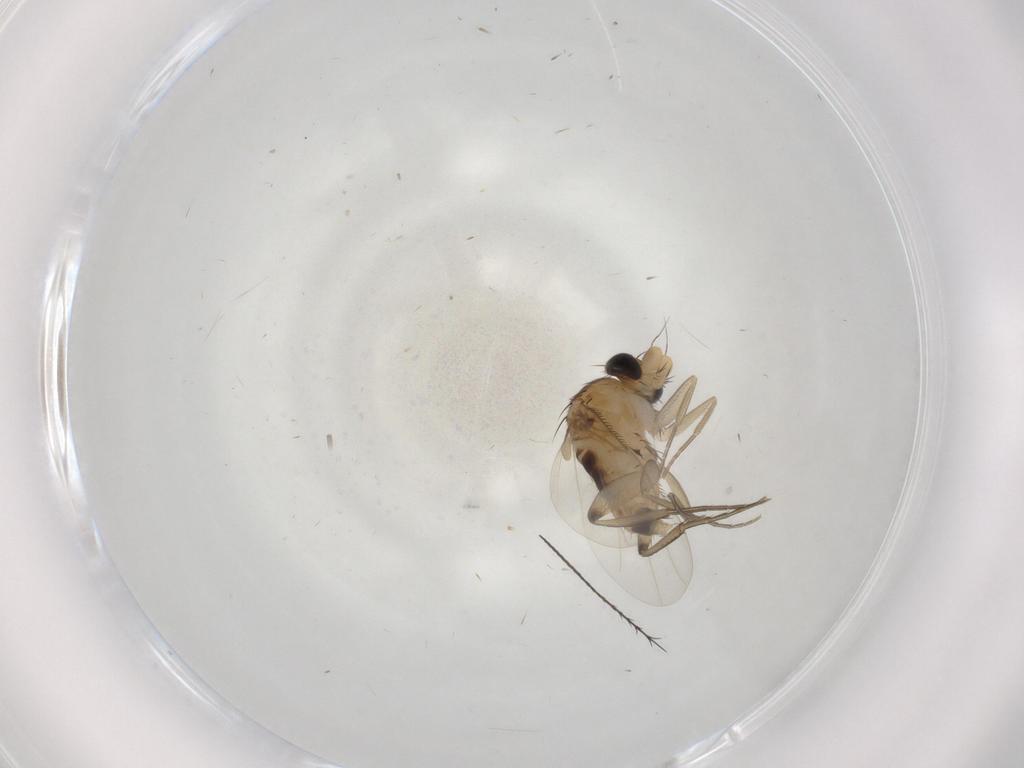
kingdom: Animalia
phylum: Arthropoda
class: Insecta
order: Diptera
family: Phoridae
